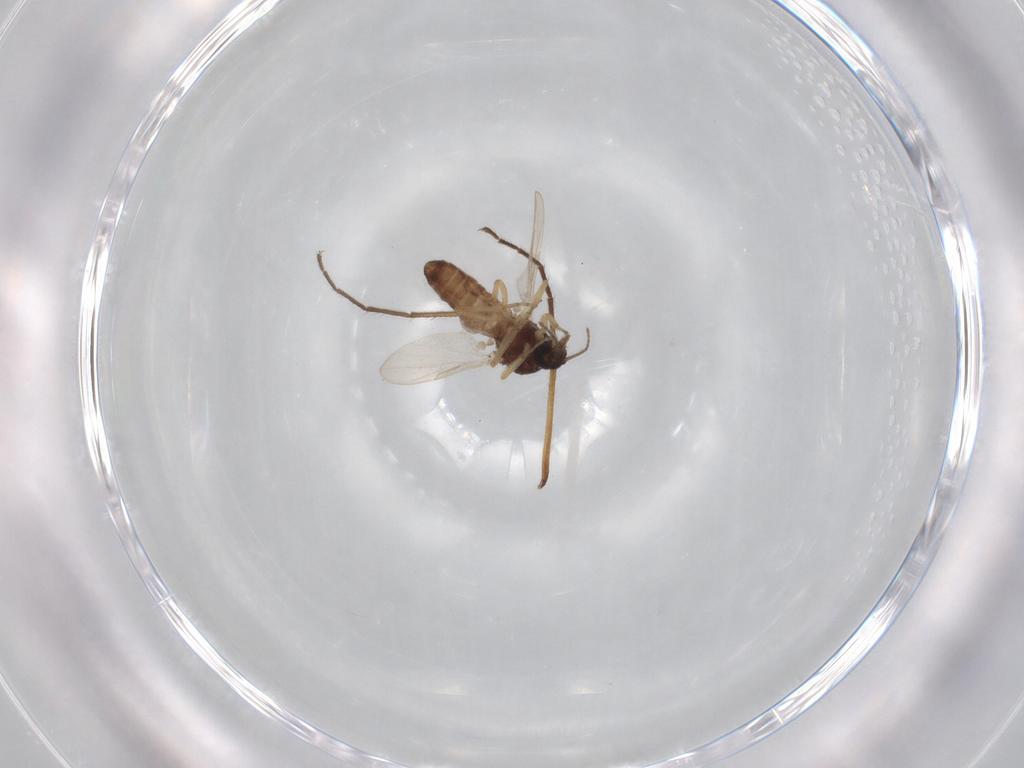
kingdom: Animalia
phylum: Arthropoda
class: Insecta
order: Diptera
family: Ceratopogonidae
